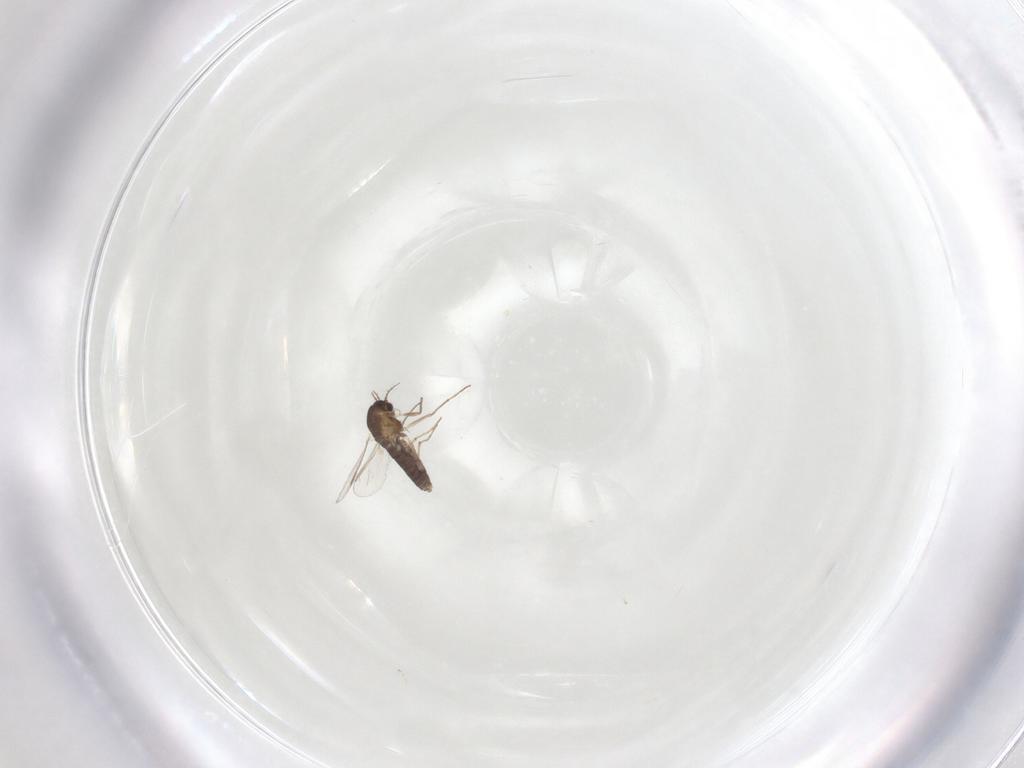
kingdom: Animalia
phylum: Arthropoda
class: Insecta
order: Diptera
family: Chironomidae
